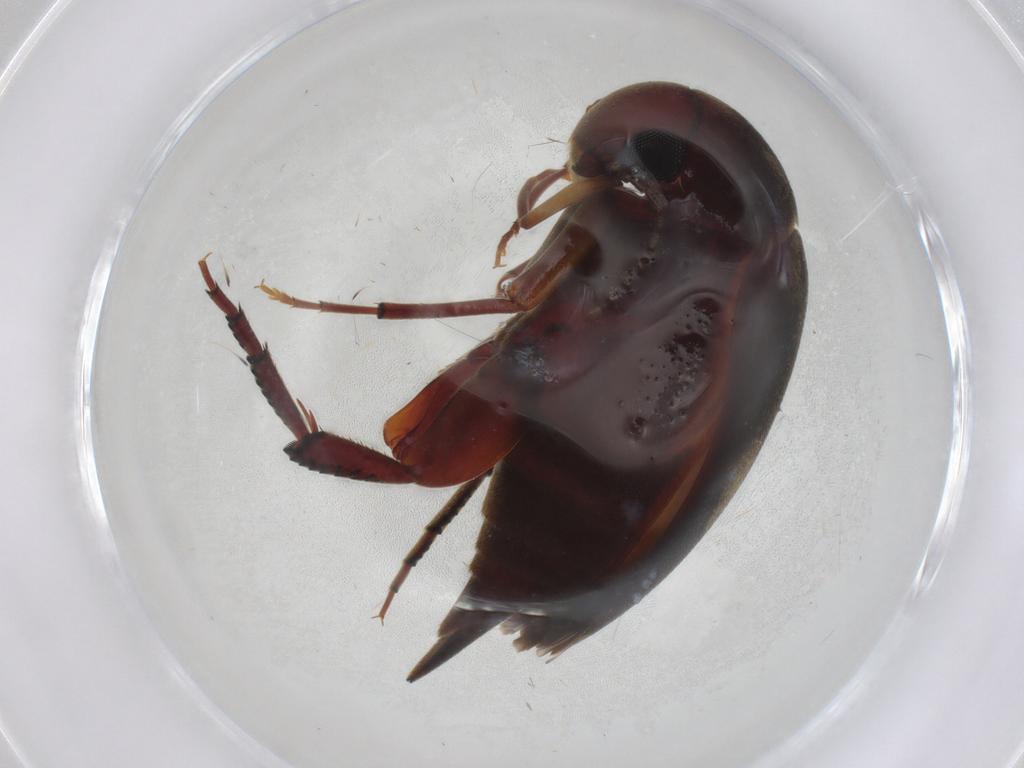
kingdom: Animalia
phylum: Arthropoda
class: Insecta
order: Coleoptera
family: Mordellidae
